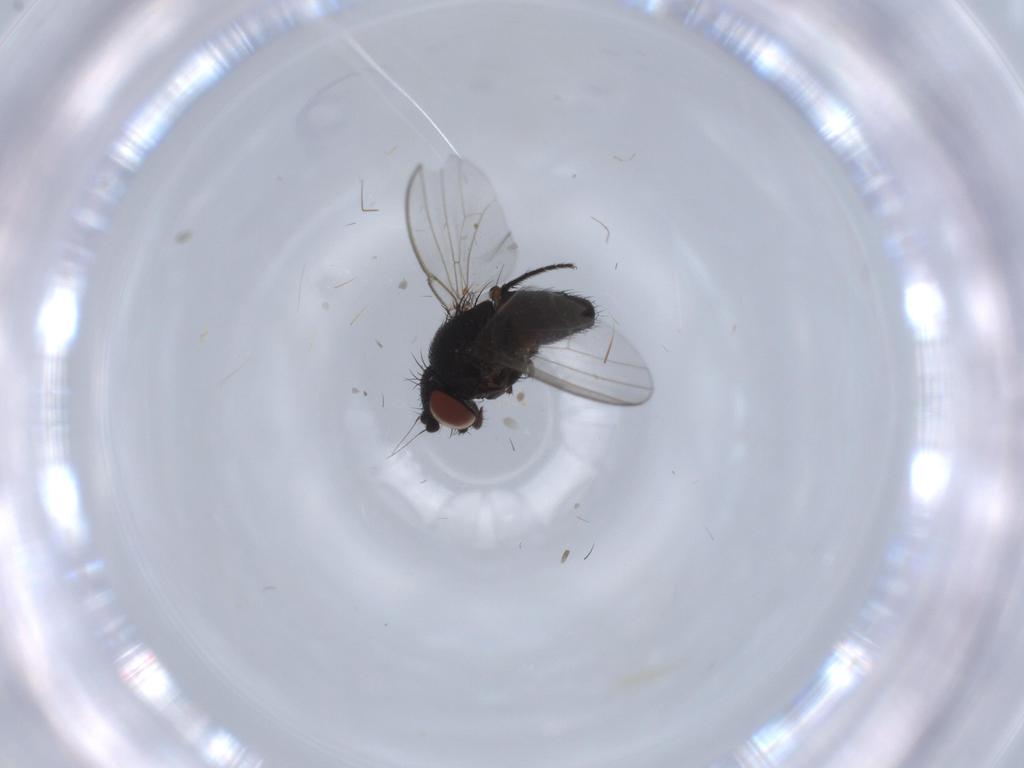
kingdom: Animalia
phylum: Arthropoda
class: Insecta
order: Diptera
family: Milichiidae
